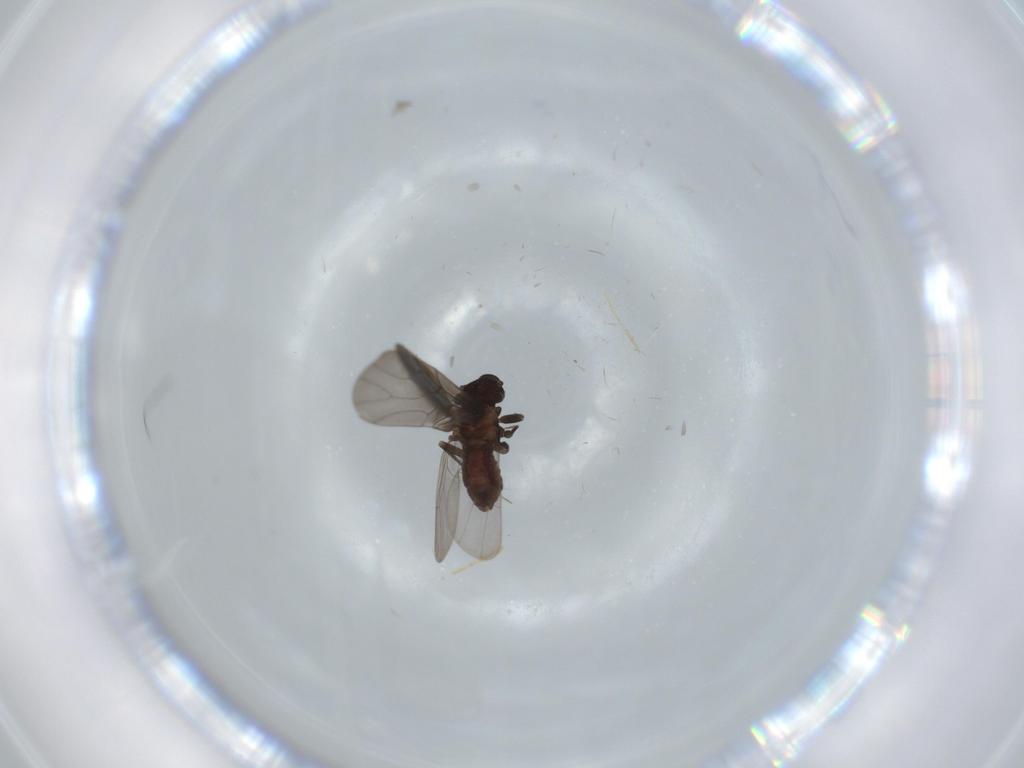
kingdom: Animalia
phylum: Arthropoda
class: Insecta
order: Psocodea
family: Lepidopsocidae
